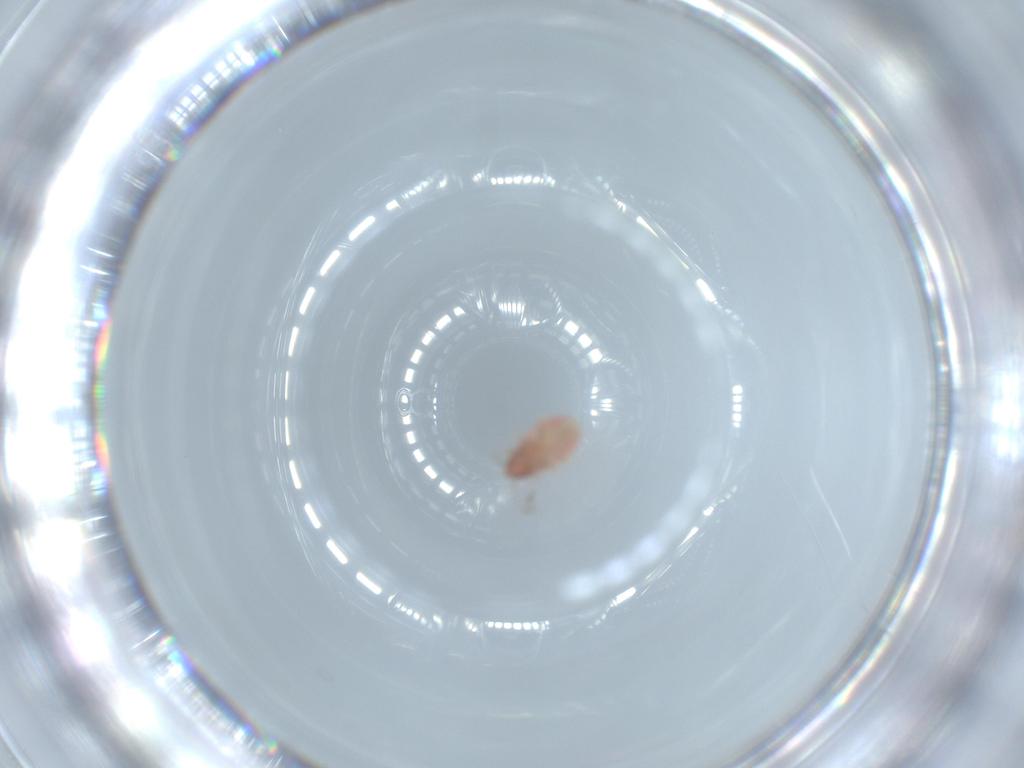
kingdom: Animalia
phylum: Arthropoda
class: Insecta
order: Hemiptera
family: Anthocoridae
